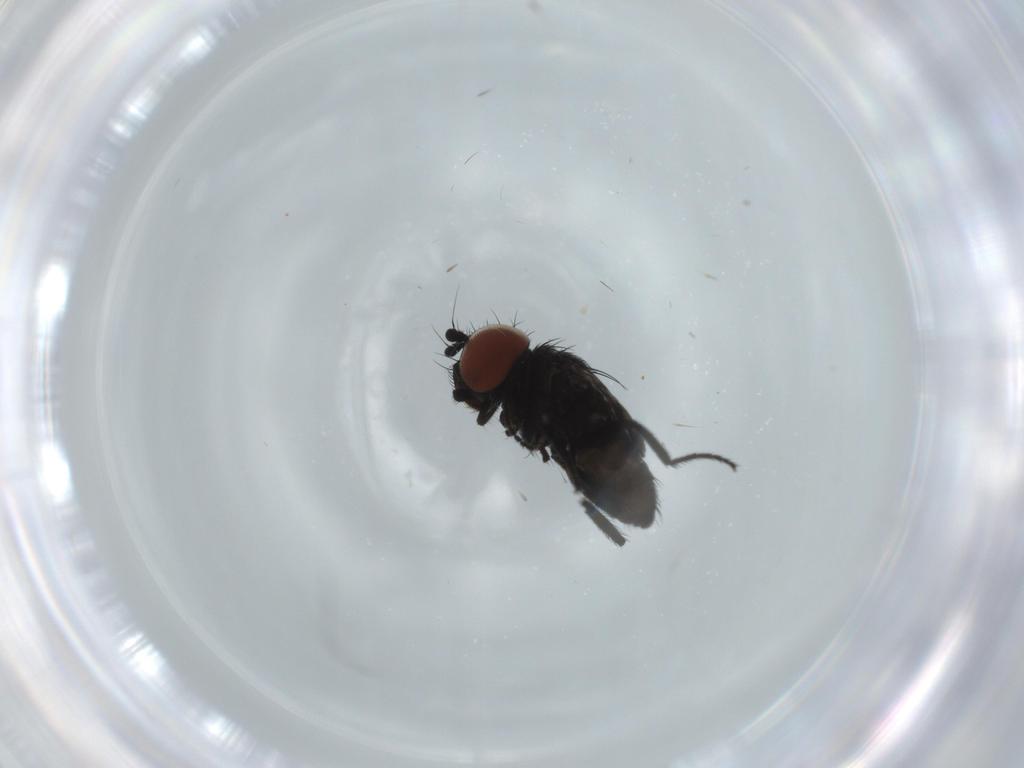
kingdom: Animalia
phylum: Arthropoda
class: Insecta
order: Diptera
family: Milichiidae
